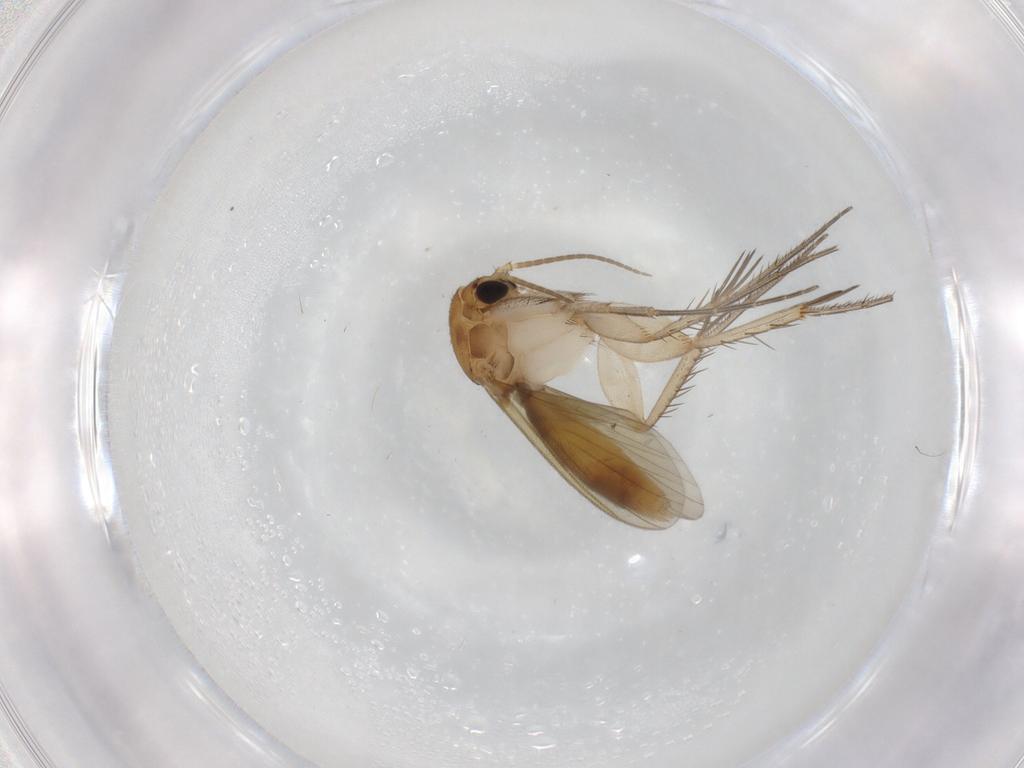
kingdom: Animalia
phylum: Arthropoda
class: Insecta
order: Diptera
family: Mycetophilidae
